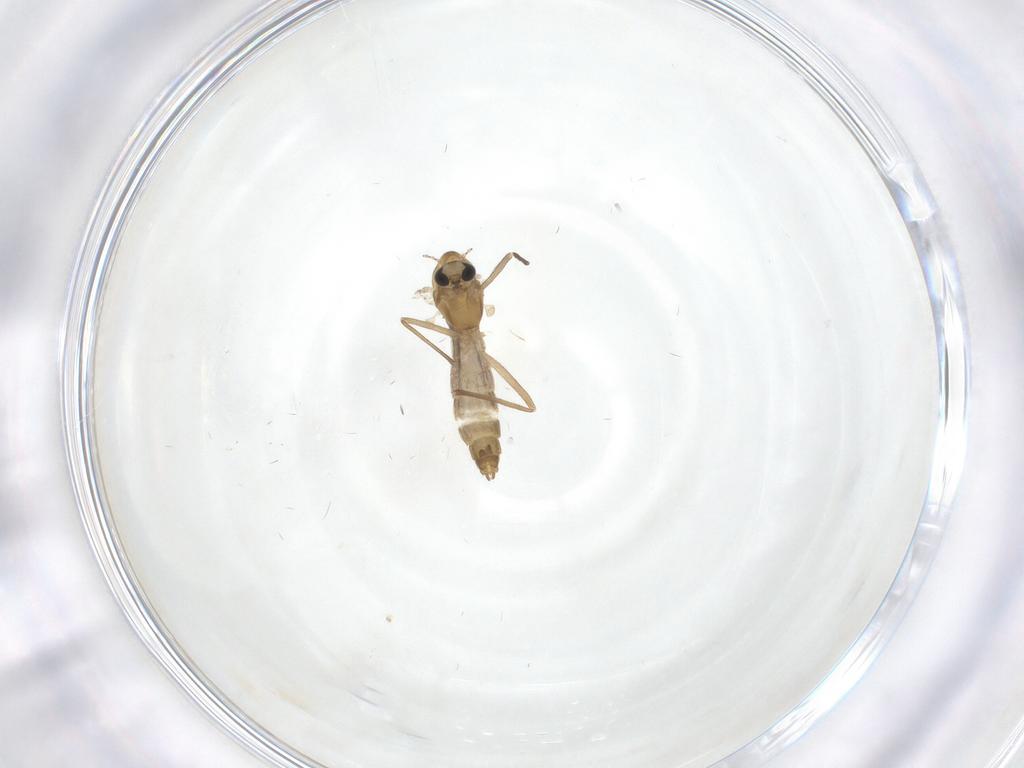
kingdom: Animalia
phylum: Arthropoda
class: Insecta
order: Diptera
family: Chironomidae
